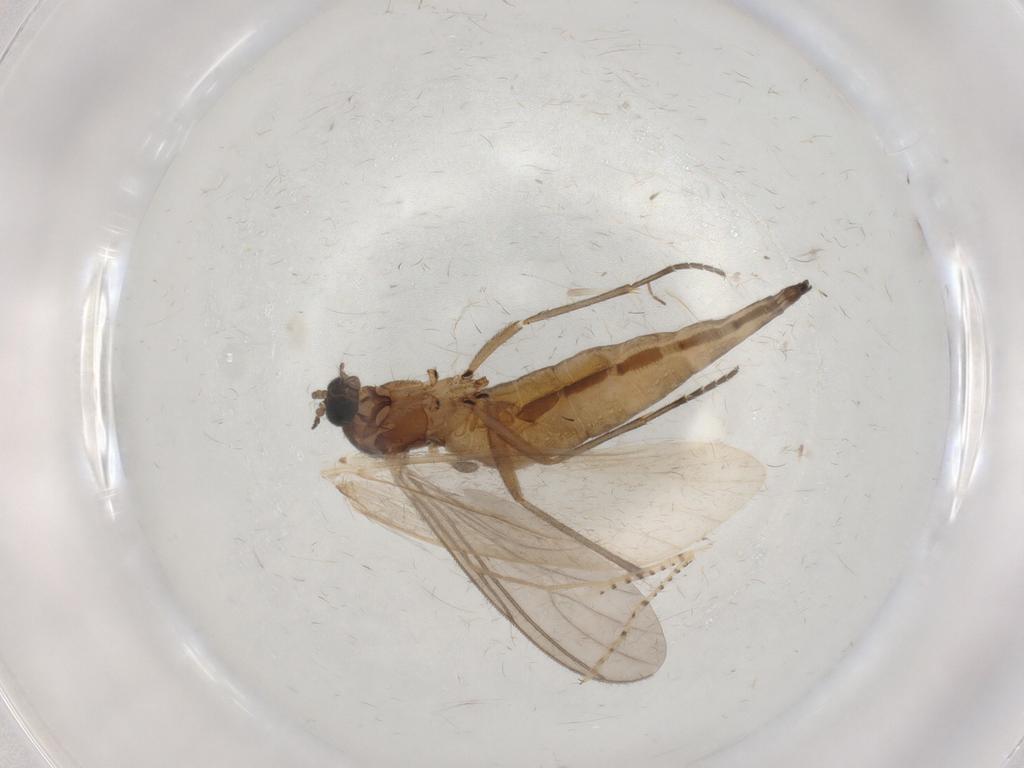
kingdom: Animalia
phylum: Arthropoda
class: Insecta
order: Diptera
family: Sciaridae
